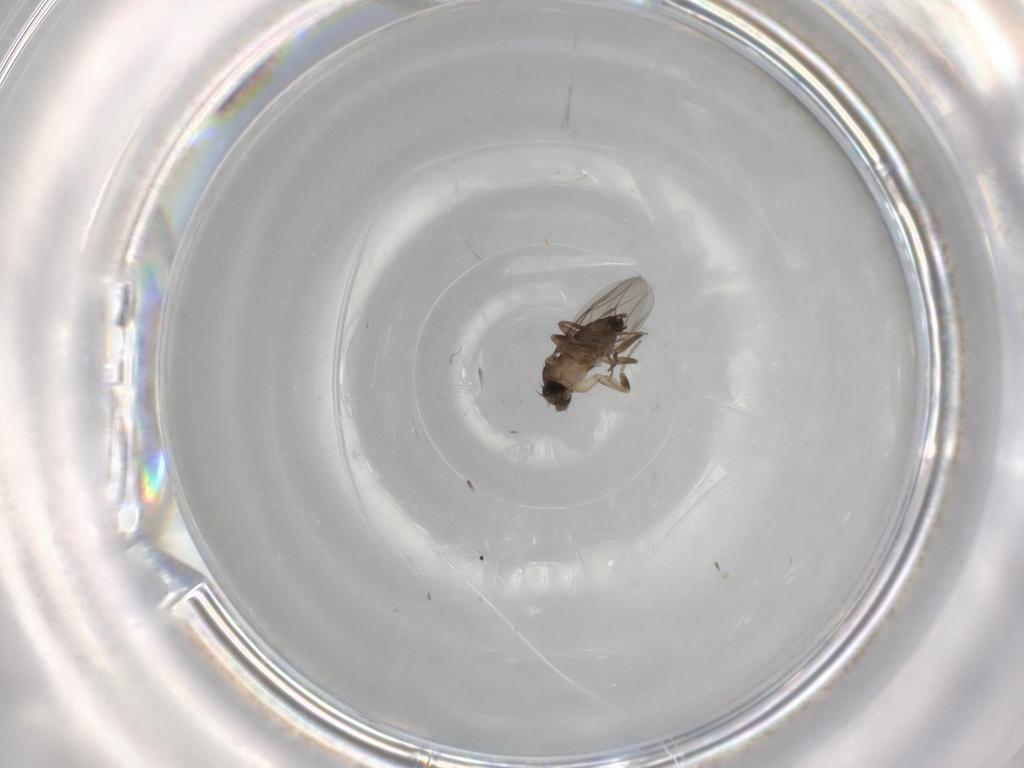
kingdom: Animalia
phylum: Arthropoda
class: Insecta
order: Diptera
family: Phoridae
